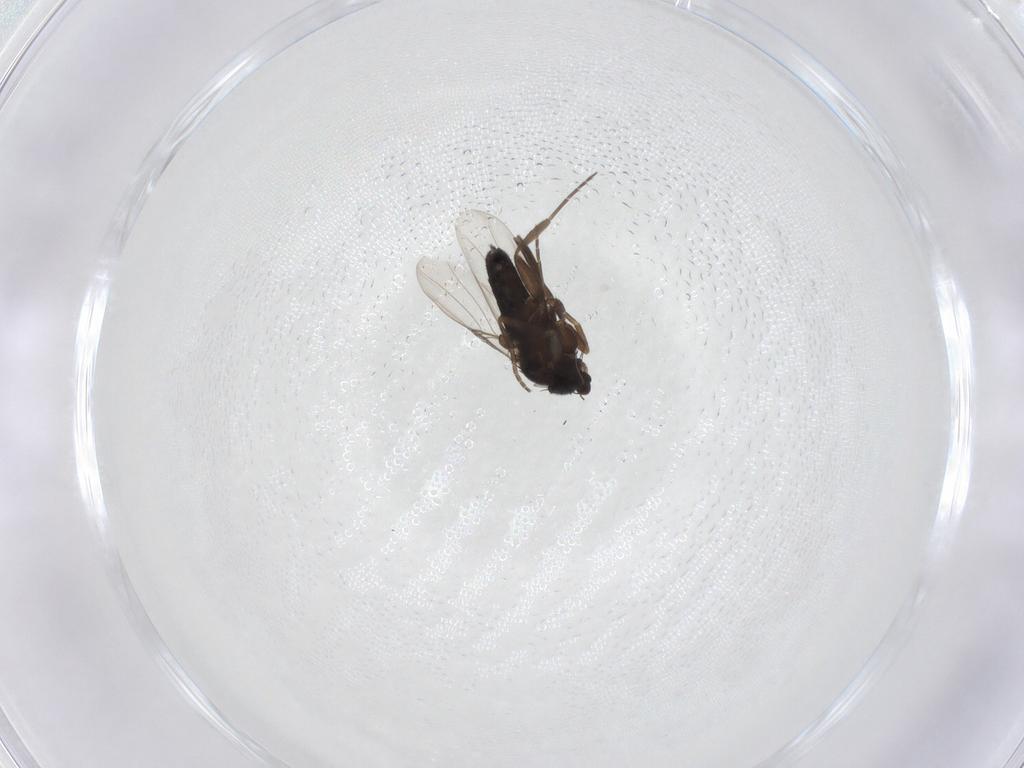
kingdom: Animalia
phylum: Arthropoda
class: Insecta
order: Diptera
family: Cecidomyiidae
